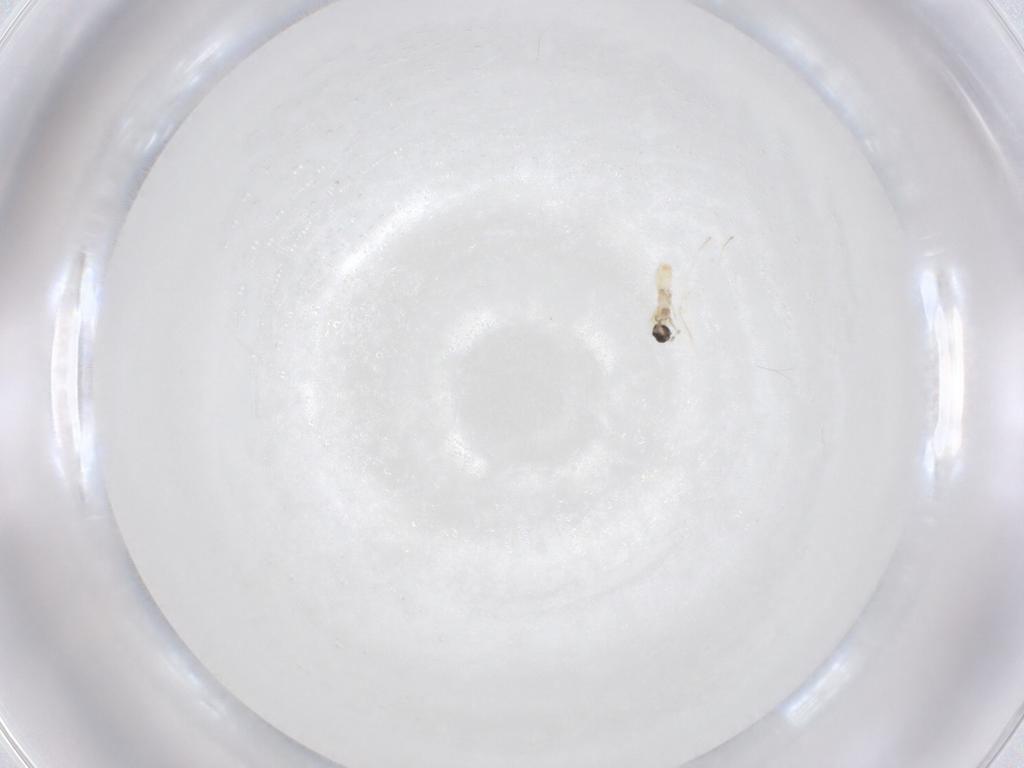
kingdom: Animalia
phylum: Arthropoda
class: Insecta
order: Diptera
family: Cecidomyiidae
